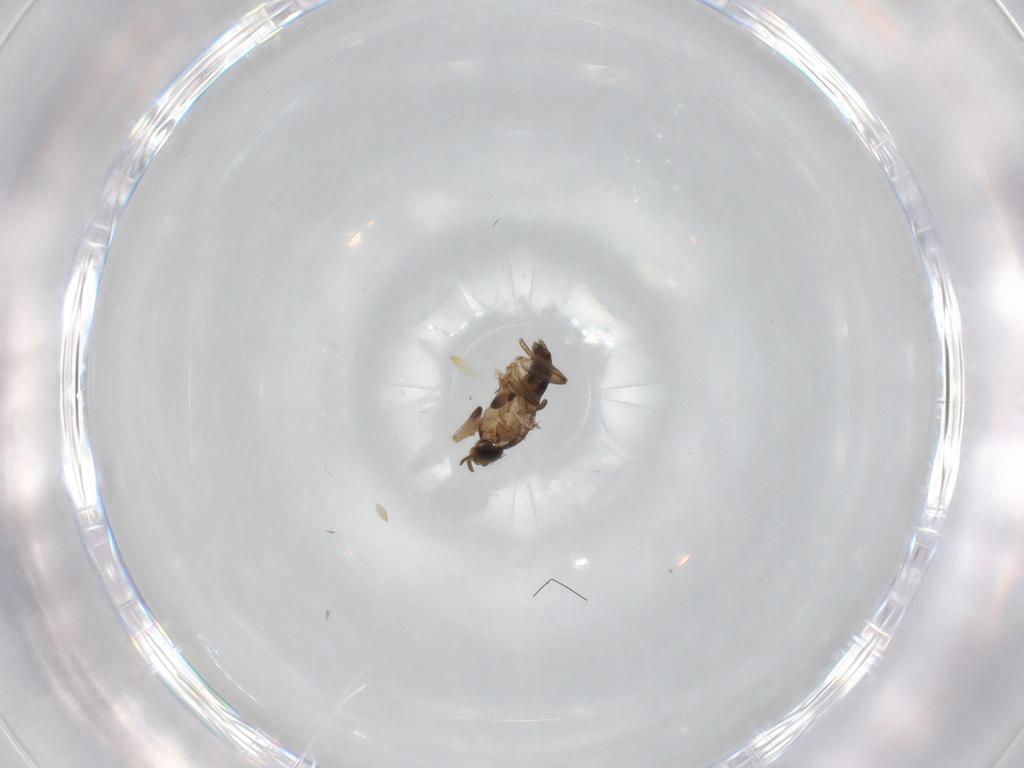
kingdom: Animalia
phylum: Arthropoda
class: Insecta
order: Diptera
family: Phoridae
